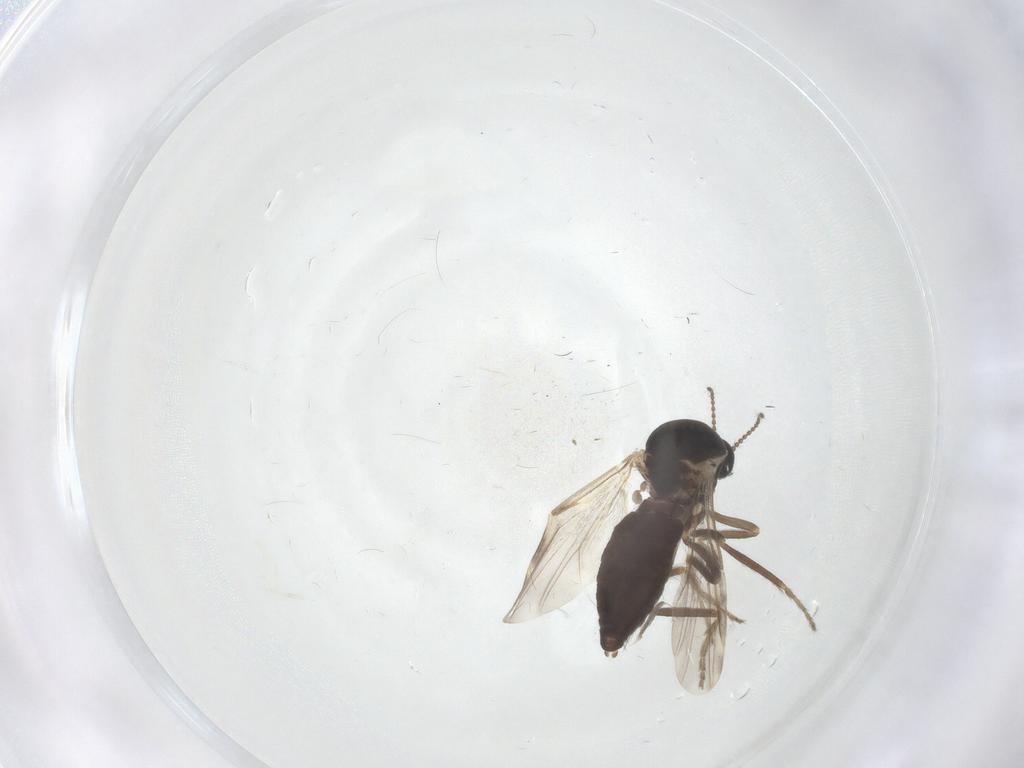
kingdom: Animalia
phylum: Arthropoda
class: Insecta
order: Diptera
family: Ceratopogonidae
